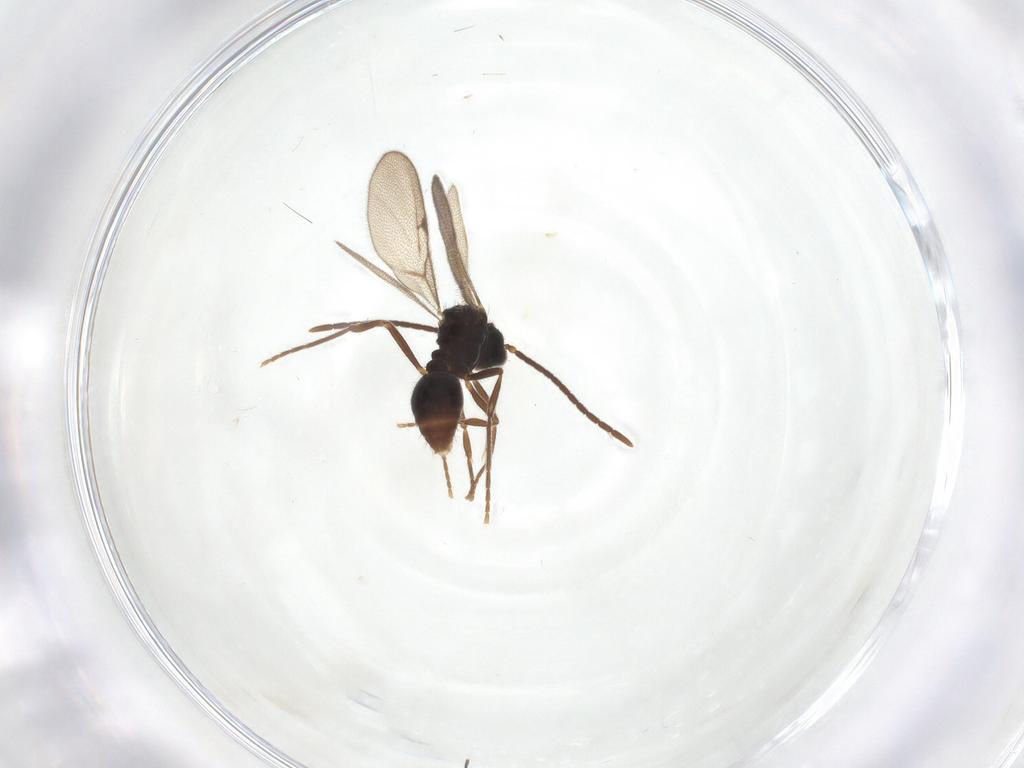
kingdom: Animalia
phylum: Arthropoda
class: Insecta
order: Hymenoptera
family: Formicidae
